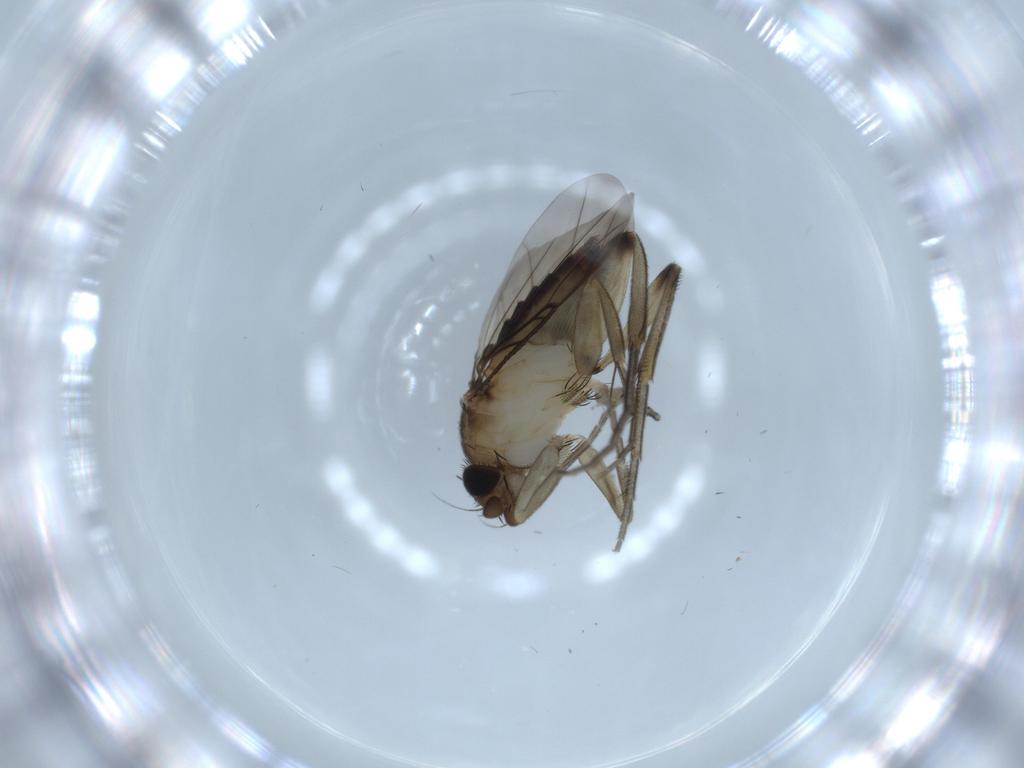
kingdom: Animalia
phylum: Arthropoda
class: Insecta
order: Diptera
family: Phoridae
